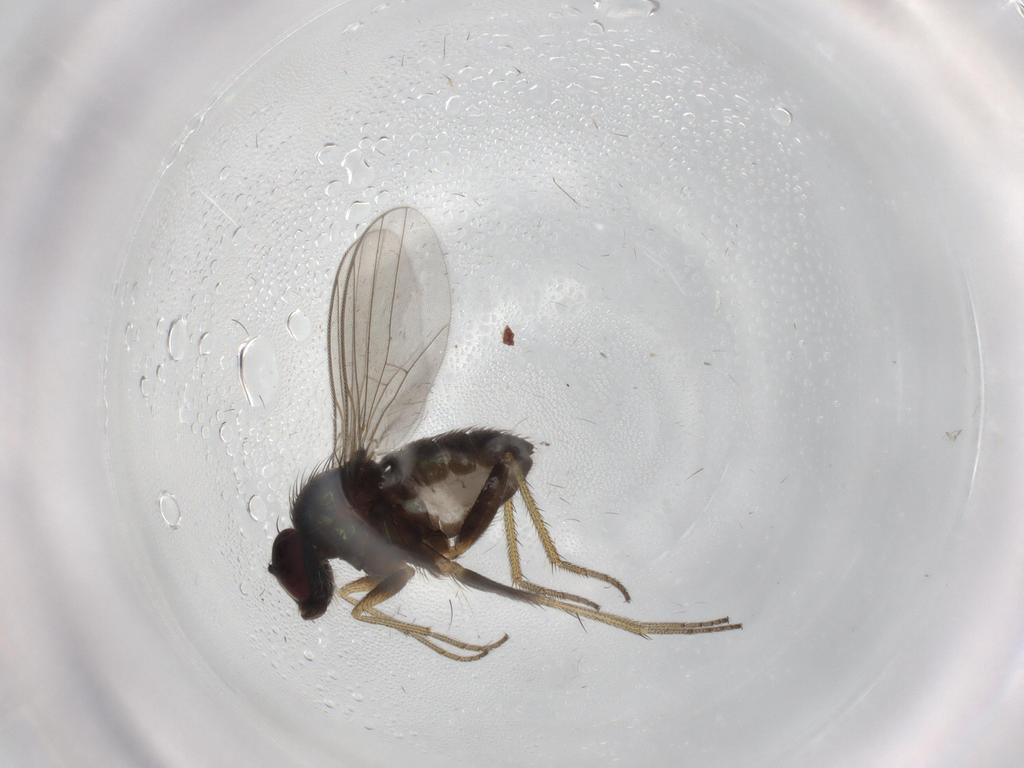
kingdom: Animalia
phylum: Arthropoda
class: Insecta
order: Diptera
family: Dolichopodidae
